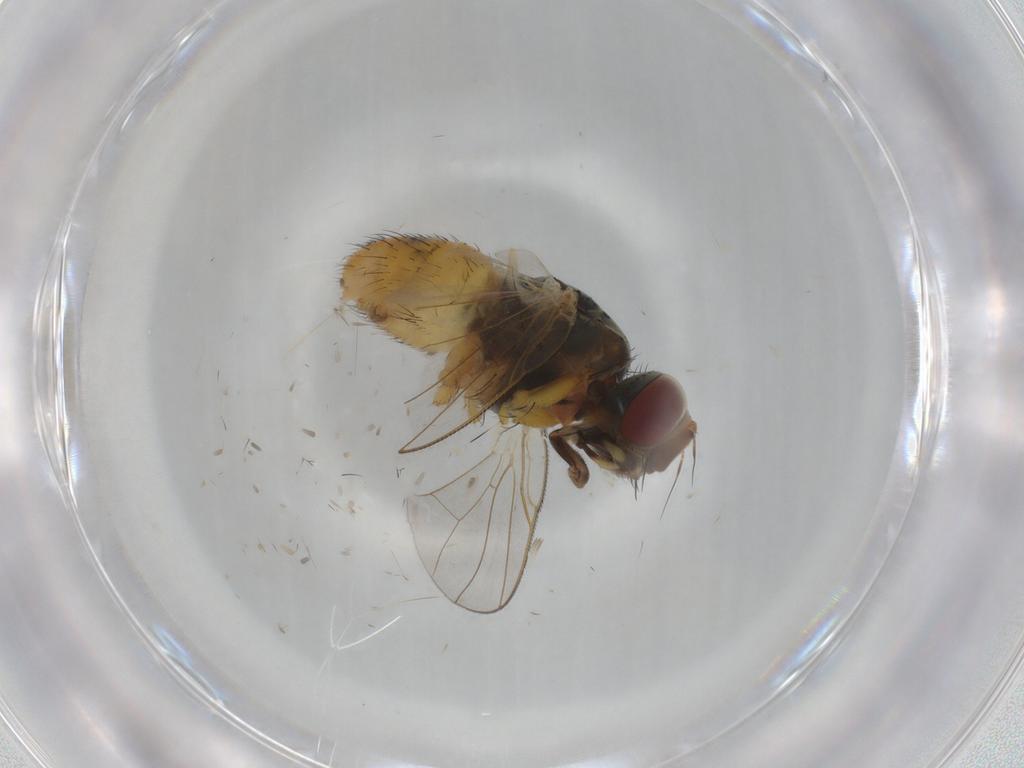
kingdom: Animalia
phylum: Arthropoda
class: Insecta
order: Diptera
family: Muscidae
